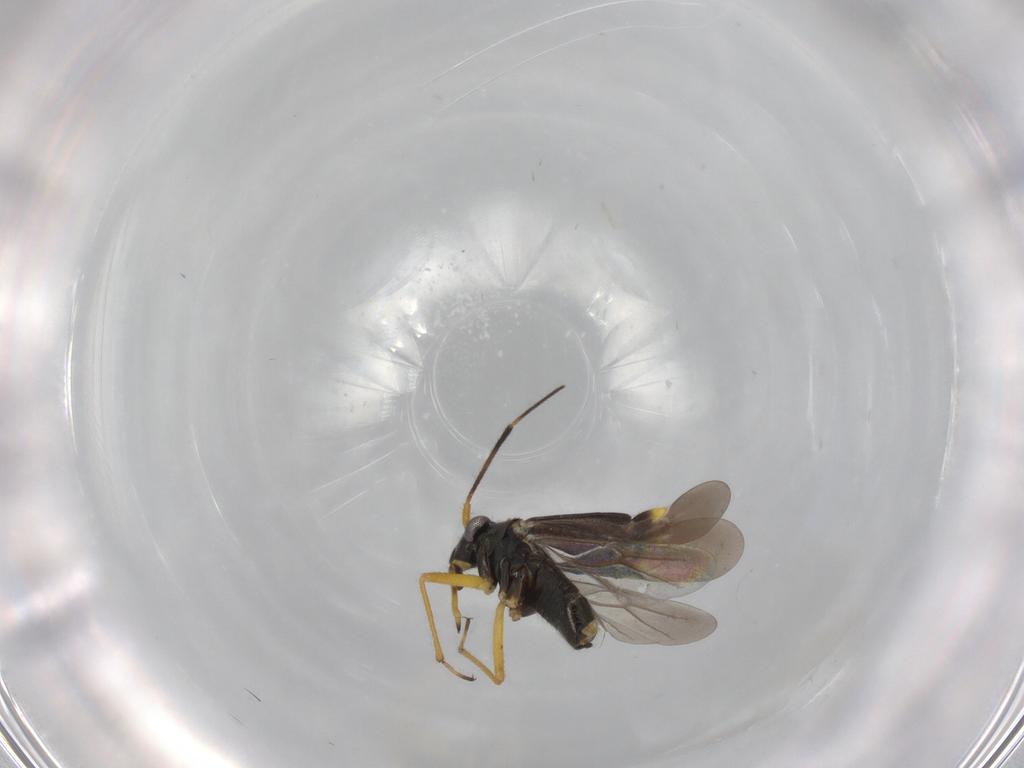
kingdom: Animalia
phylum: Arthropoda
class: Insecta
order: Hemiptera
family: Miridae
